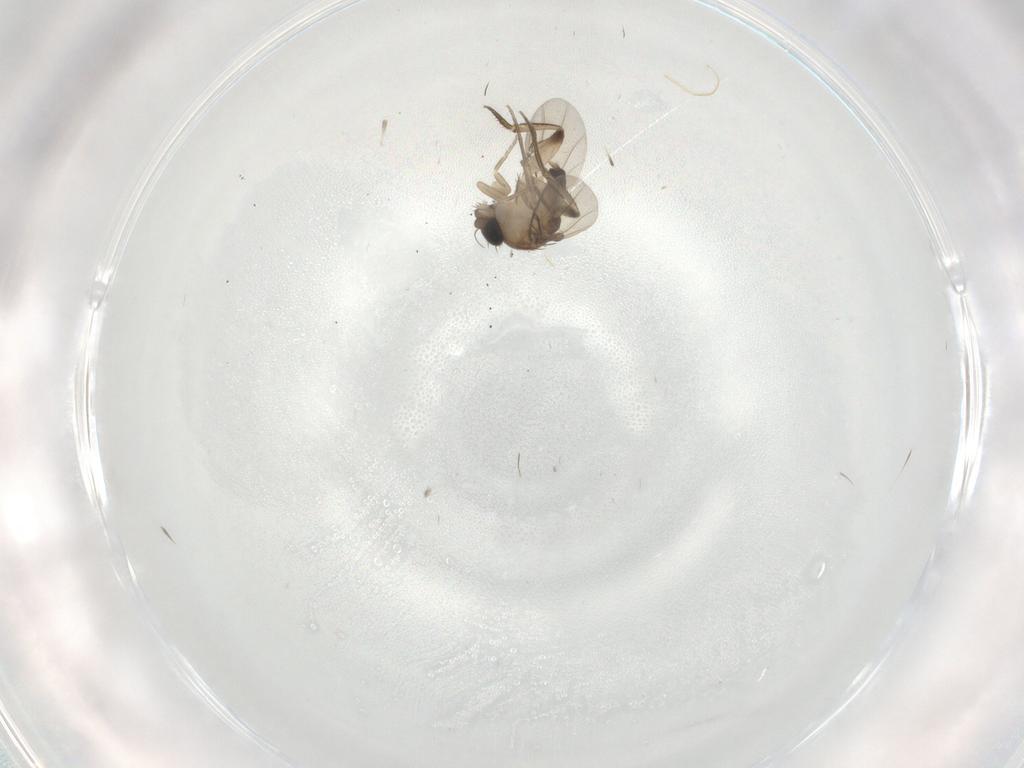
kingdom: Animalia
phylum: Arthropoda
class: Insecta
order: Diptera
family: Phoridae
